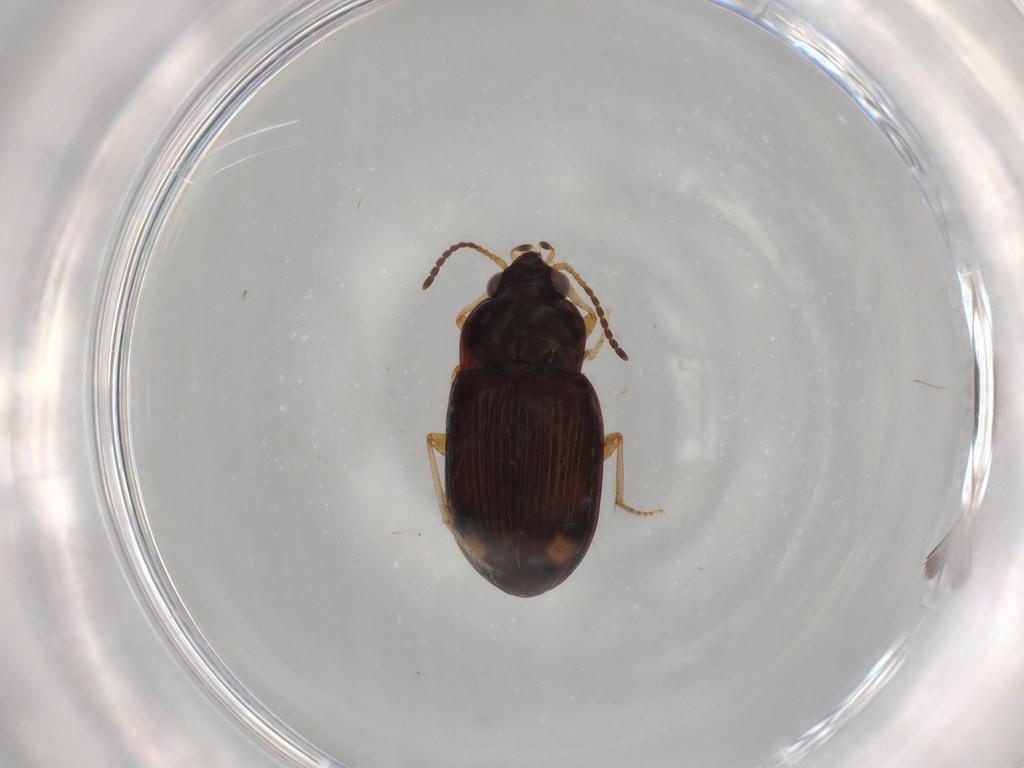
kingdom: Animalia
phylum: Arthropoda
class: Insecta
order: Coleoptera
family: Carabidae
